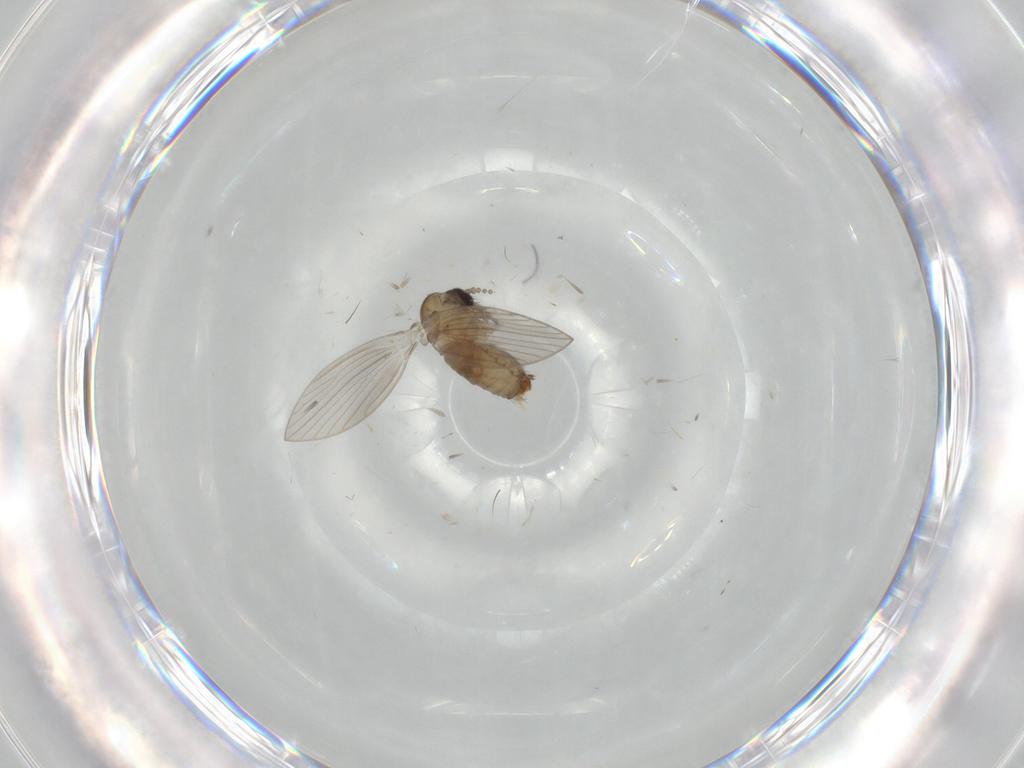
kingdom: Animalia
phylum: Arthropoda
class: Insecta
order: Diptera
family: Psychodidae
